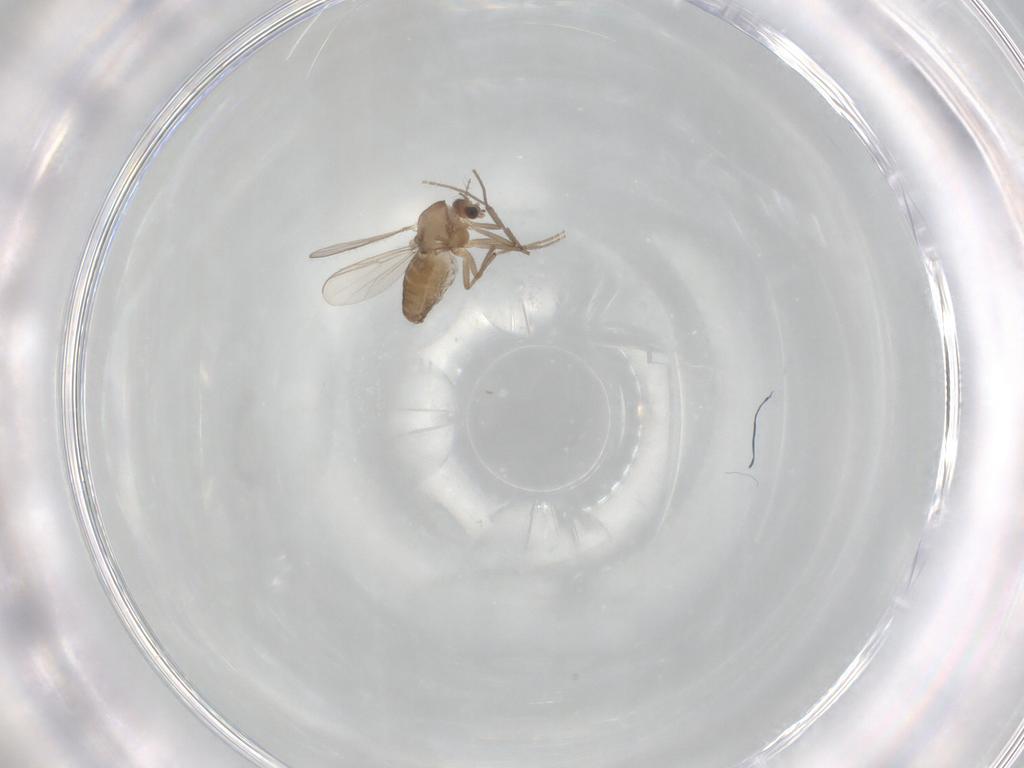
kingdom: Animalia
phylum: Arthropoda
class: Insecta
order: Diptera
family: Chironomidae
